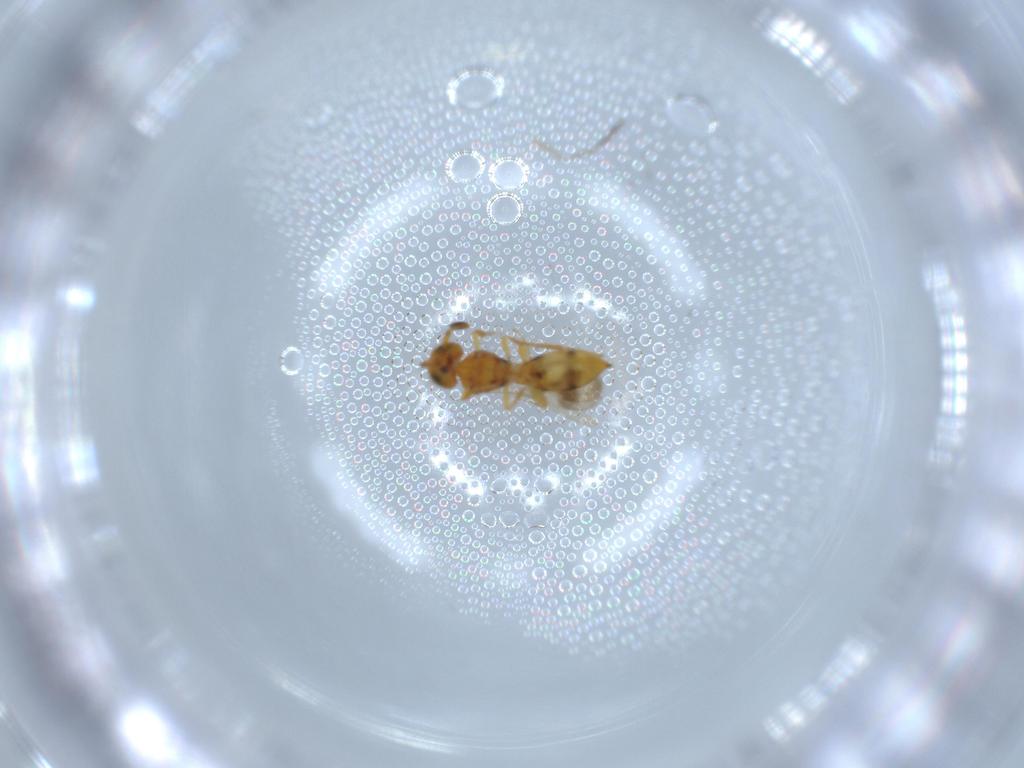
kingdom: Animalia
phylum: Arthropoda
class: Insecta
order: Hymenoptera
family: Scelionidae
